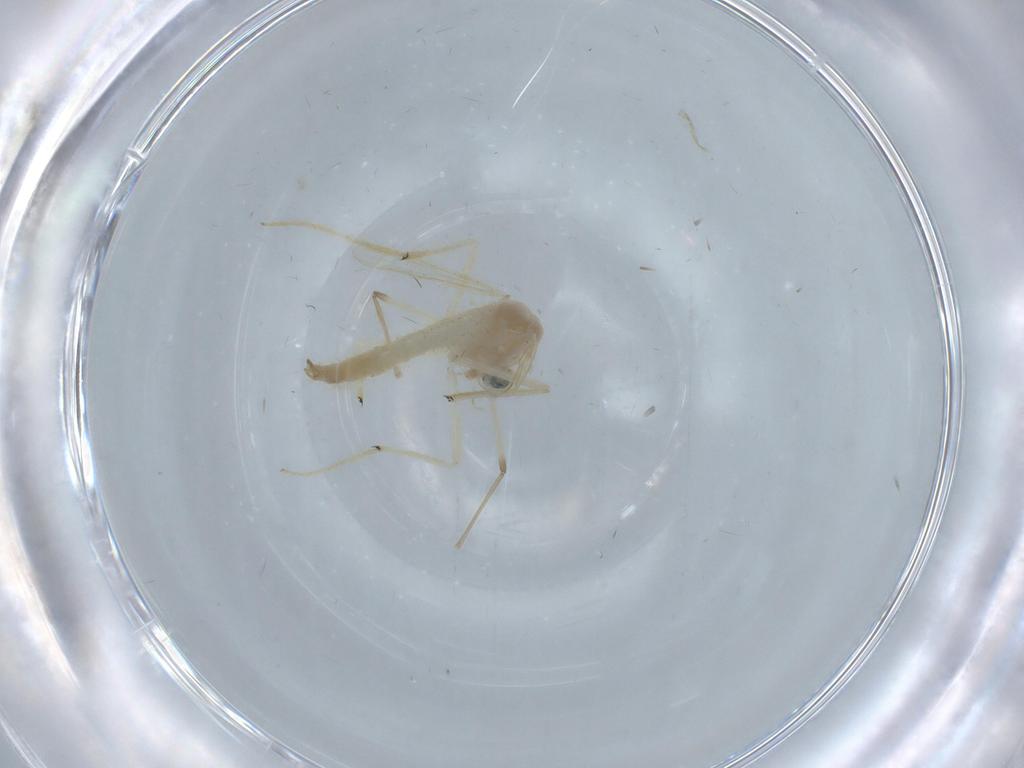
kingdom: Animalia
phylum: Arthropoda
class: Insecta
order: Diptera
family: Chironomidae
